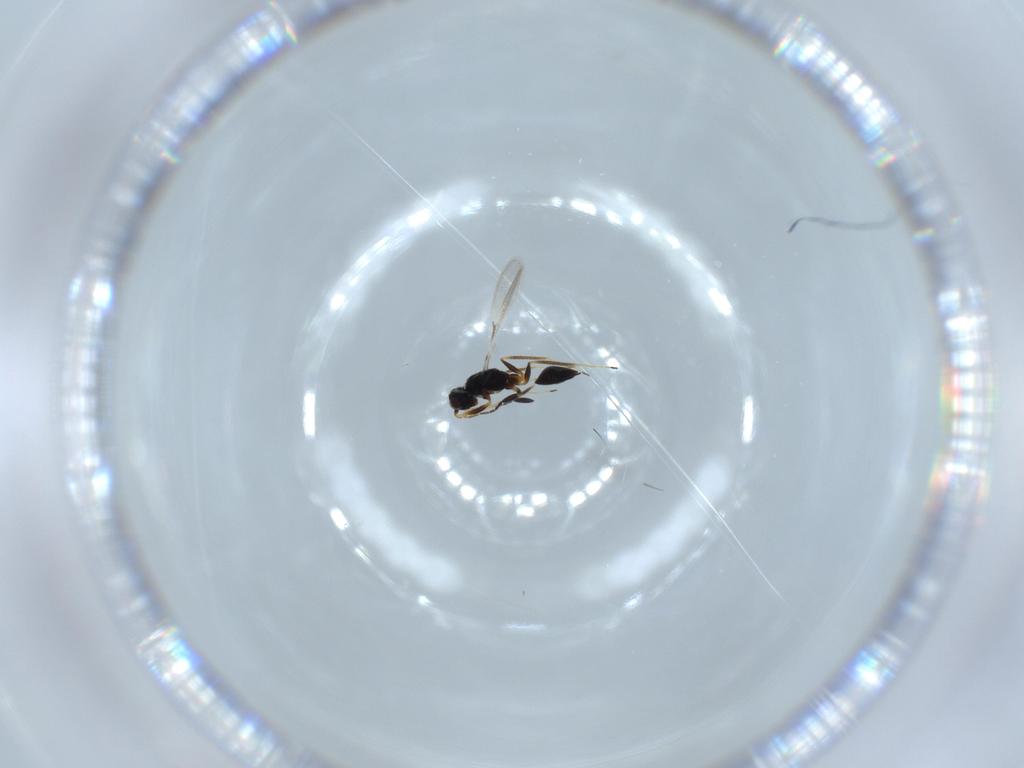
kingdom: Animalia
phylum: Arthropoda
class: Insecta
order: Hymenoptera
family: Mymaridae
